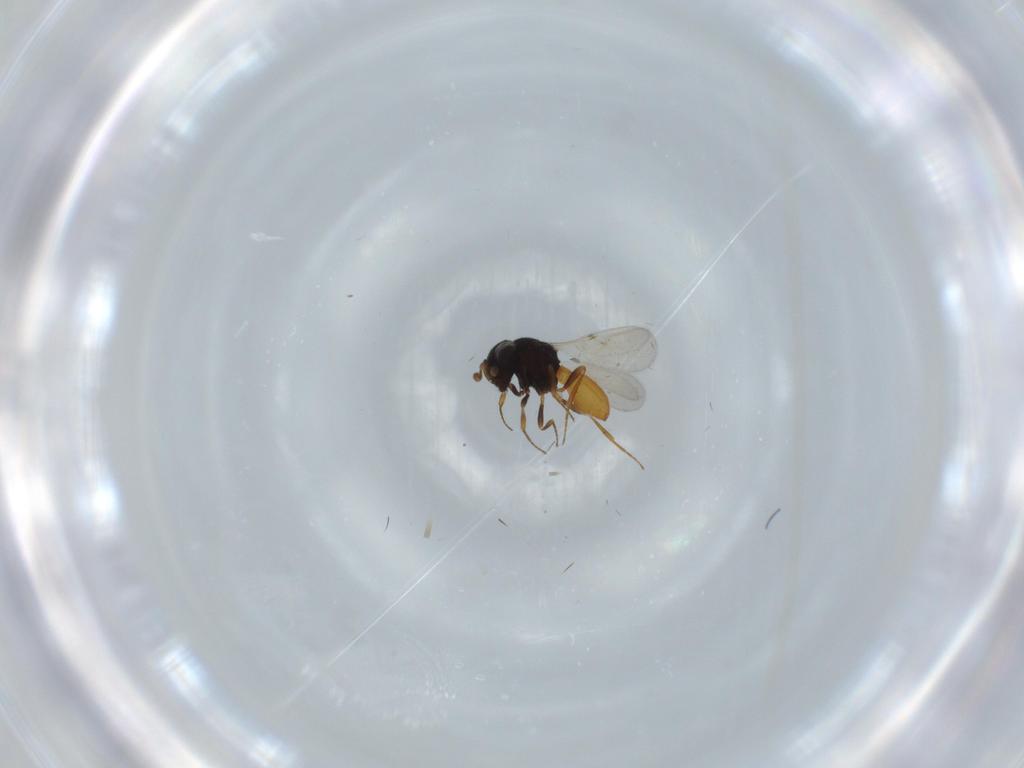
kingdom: Animalia
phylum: Arthropoda
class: Insecta
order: Hymenoptera
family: Scelionidae
